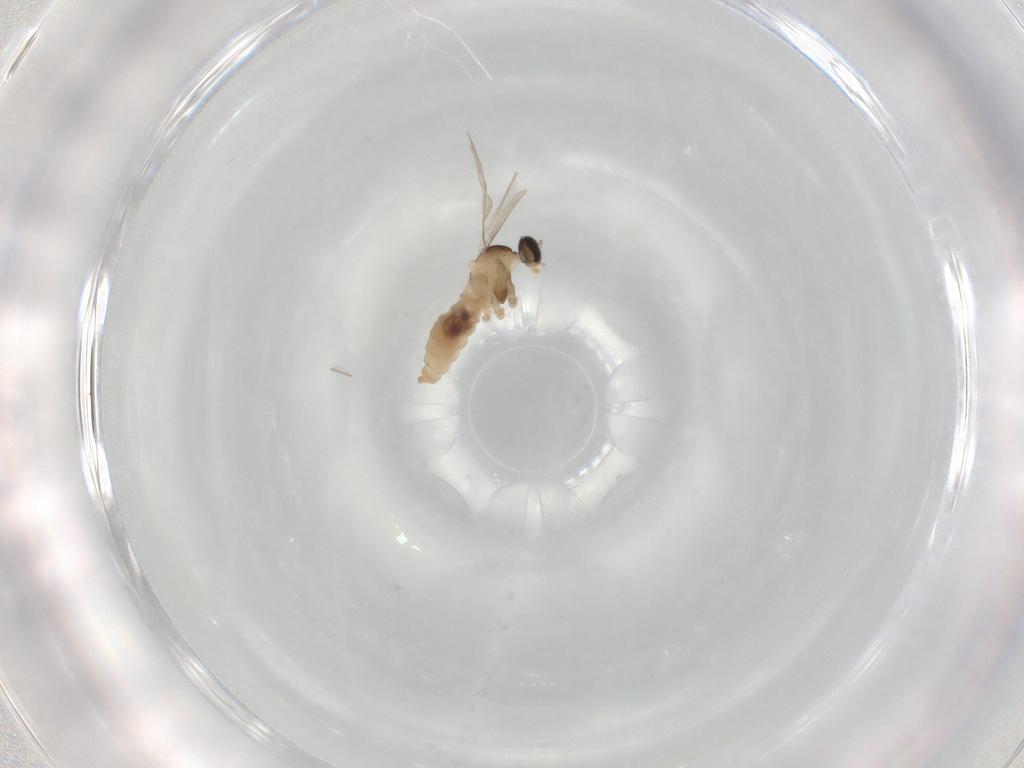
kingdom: Animalia
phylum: Arthropoda
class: Insecta
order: Diptera
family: Cecidomyiidae
